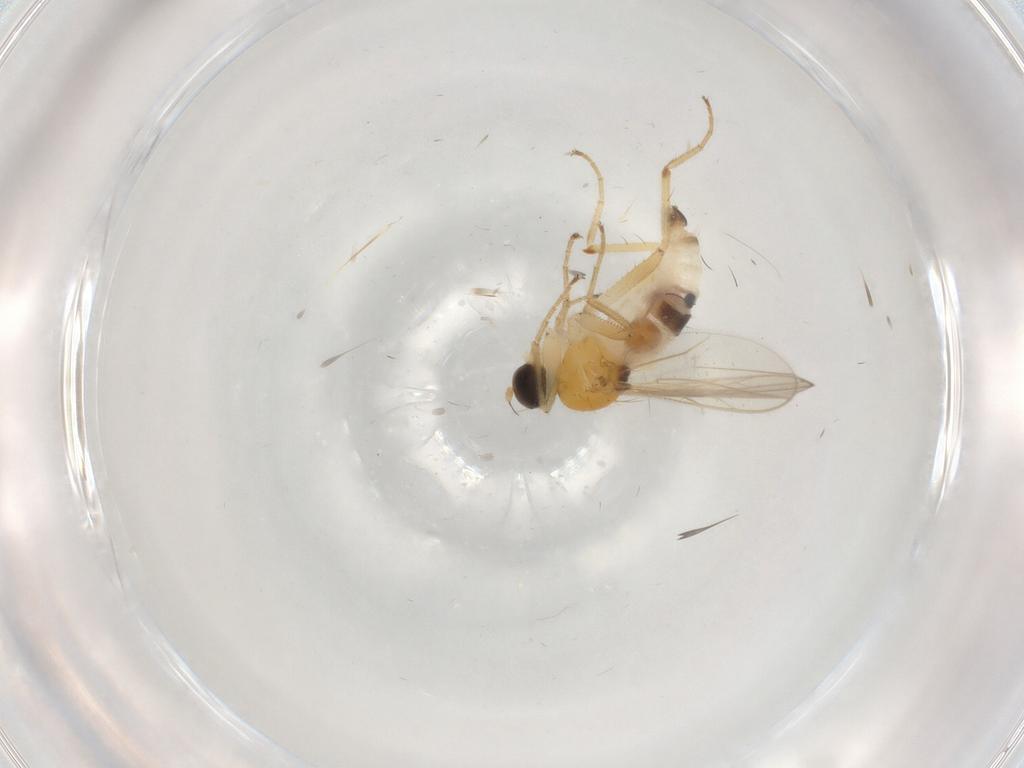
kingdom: Animalia
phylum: Arthropoda
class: Insecta
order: Diptera
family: Hybotidae
